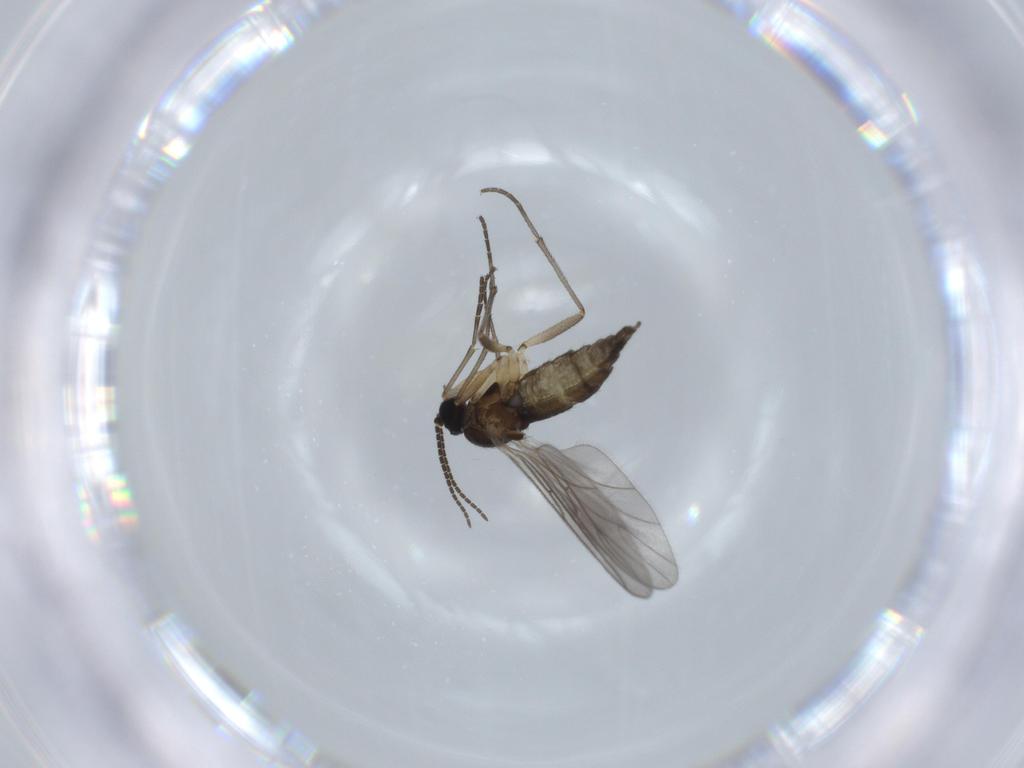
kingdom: Animalia
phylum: Arthropoda
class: Insecta
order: Diptera
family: Sciaridae
